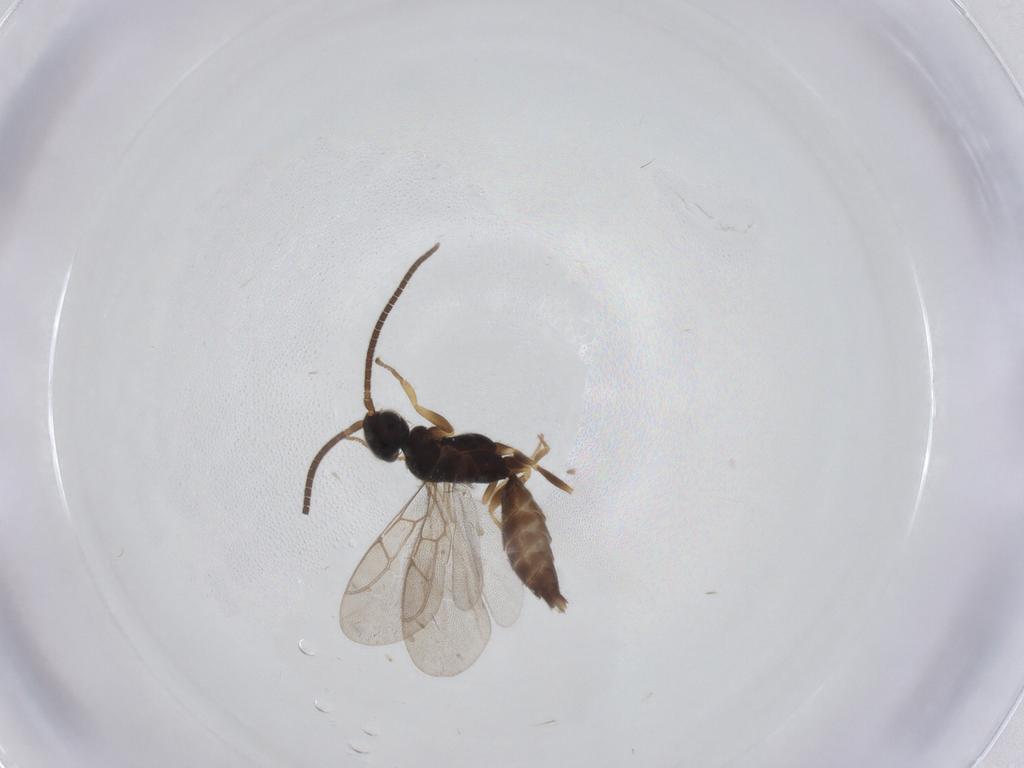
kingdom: Animalia
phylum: Arthropoda
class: Insecta
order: Hymenoptera
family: Sclerogibbidae
